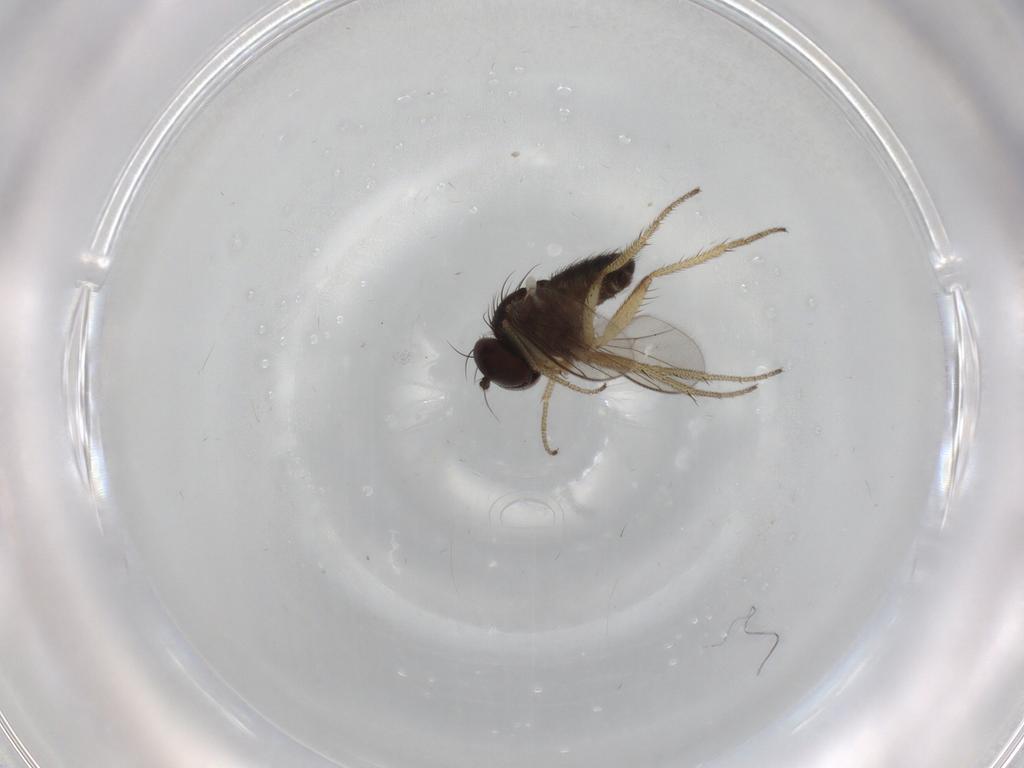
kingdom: Animalia
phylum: Arthropoda
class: Insecta
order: Diptera
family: Dolichopodidae
